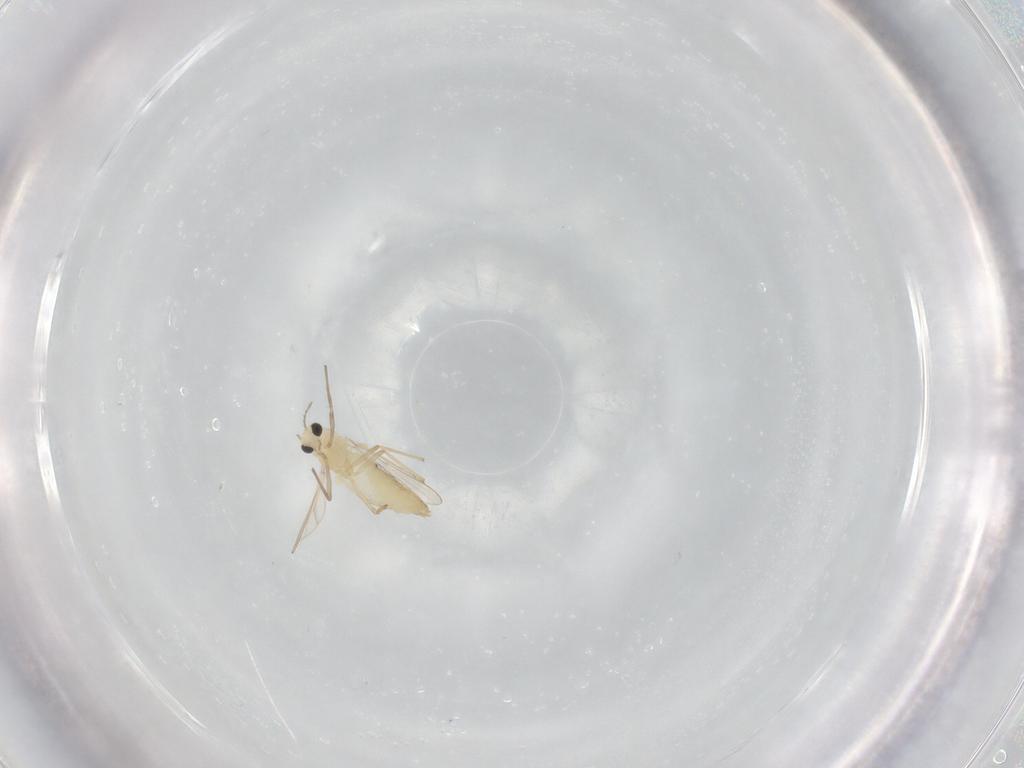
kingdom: Animalia
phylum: Arthropoda
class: Insecta
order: Diptera
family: Chironomidae
